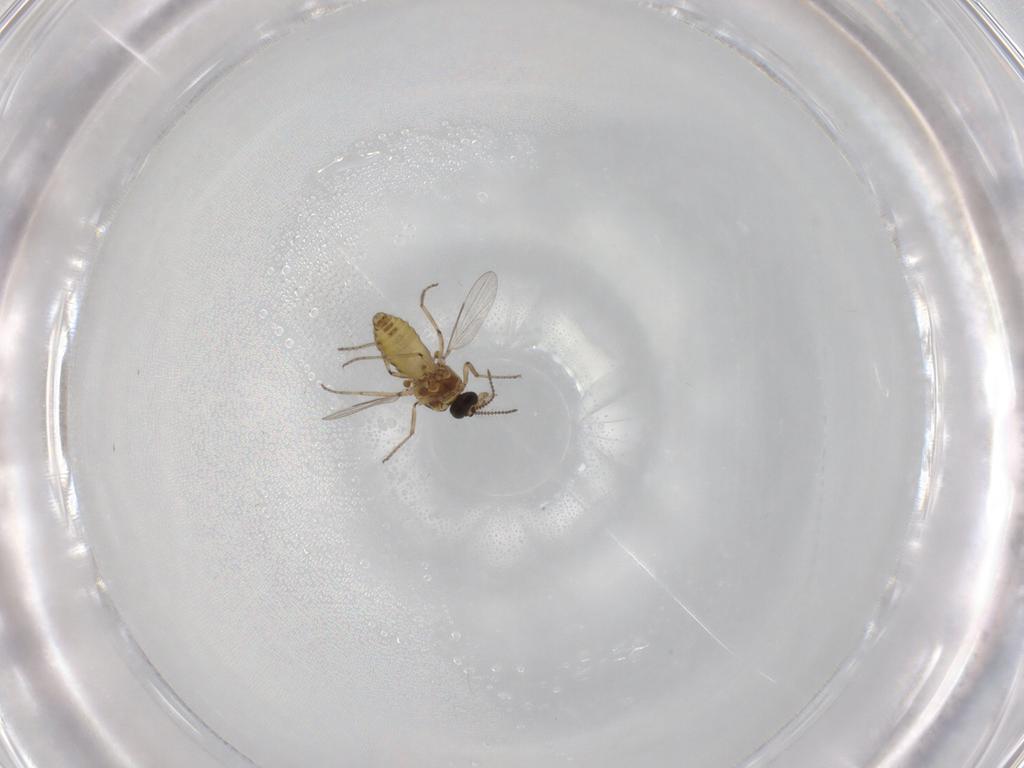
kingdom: Animalia
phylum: Arthropoda
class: Insecta
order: Diptera
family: Ceratopogonidae
